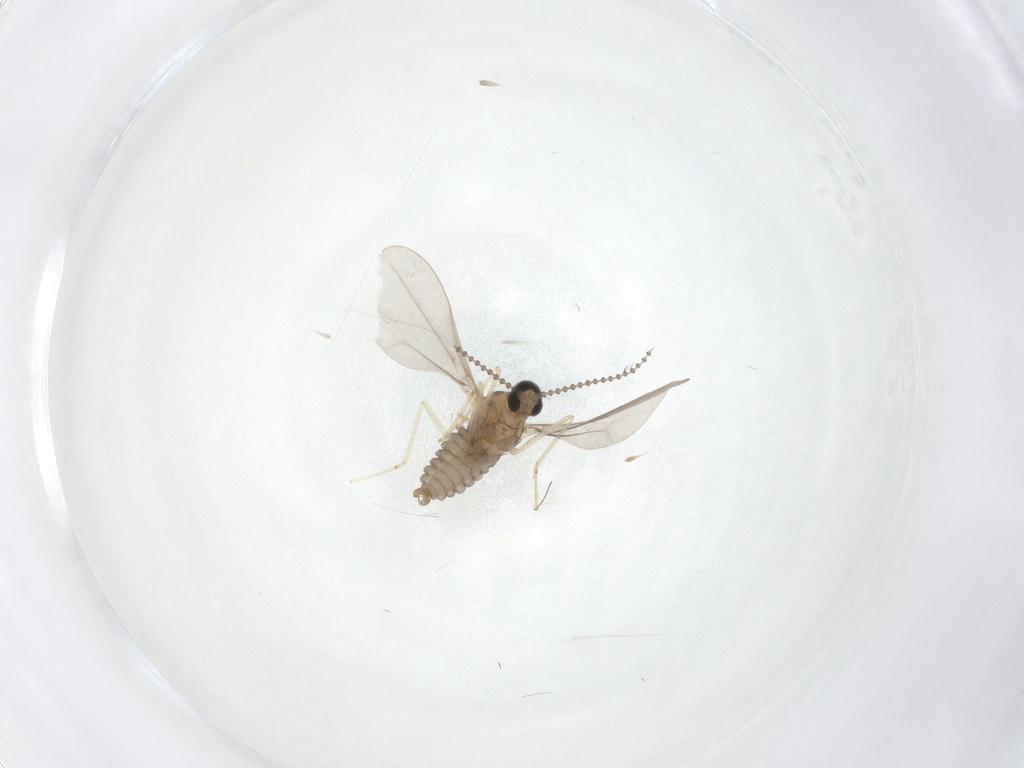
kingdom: Animalia
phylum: Arthropoda
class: Insecta
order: Diptera
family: Cecidomyiidae
